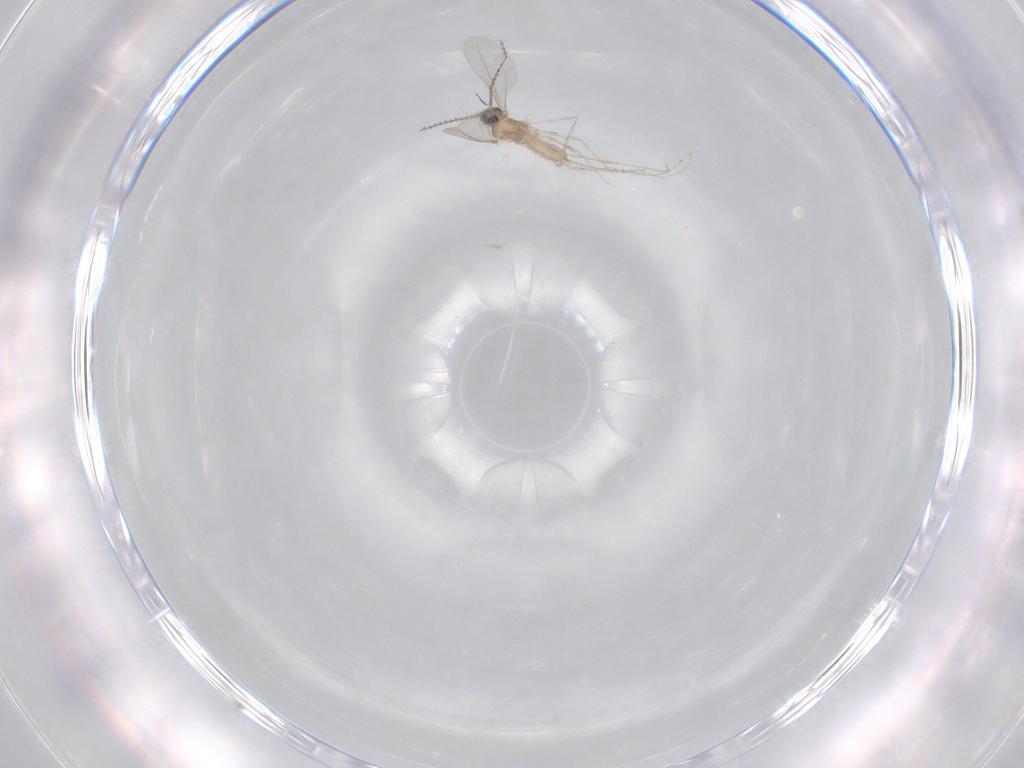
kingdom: Animalia
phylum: Arthropoda
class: Insecta
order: Diptera
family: Cecidomyiidae
